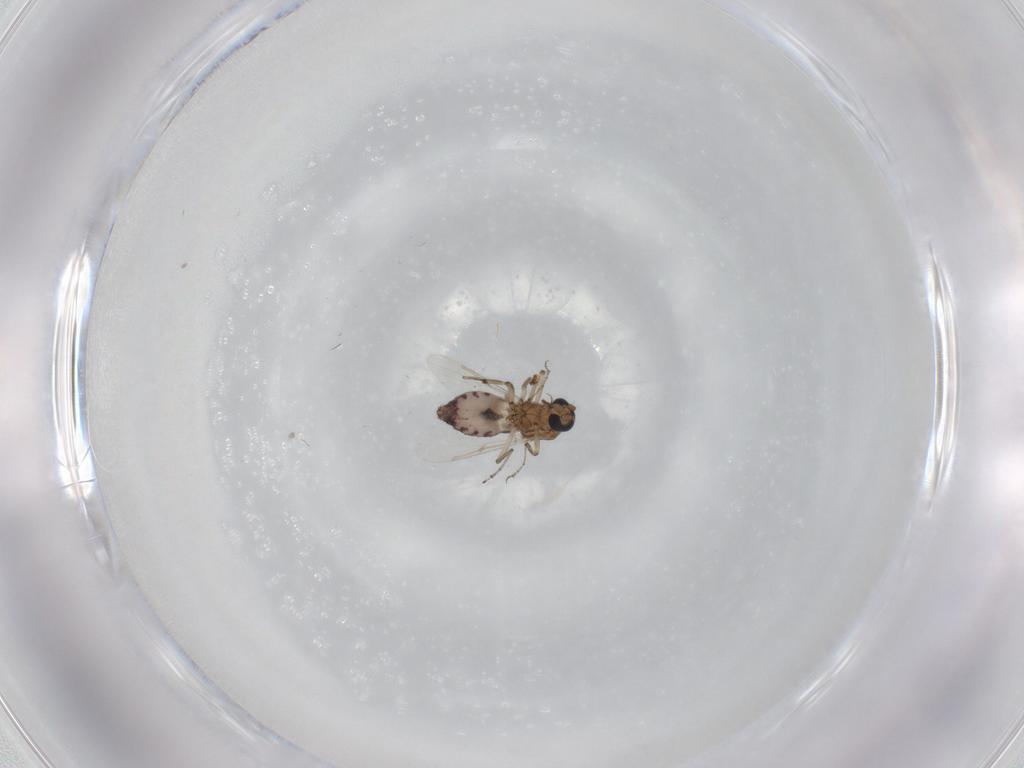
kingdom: Animalia
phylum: Arthropoda
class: Insecta
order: Diptera
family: Ceratopogonidae
